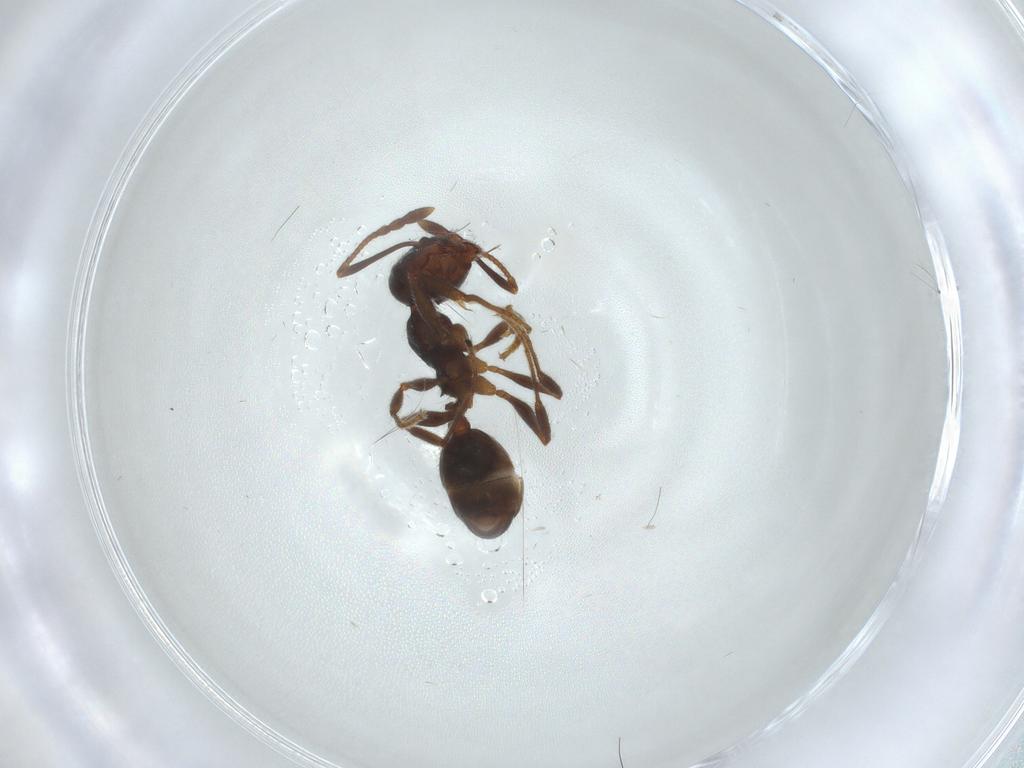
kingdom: Animalia
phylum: Arthropoda
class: Insecta
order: Hymenoptera
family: Formicidae
